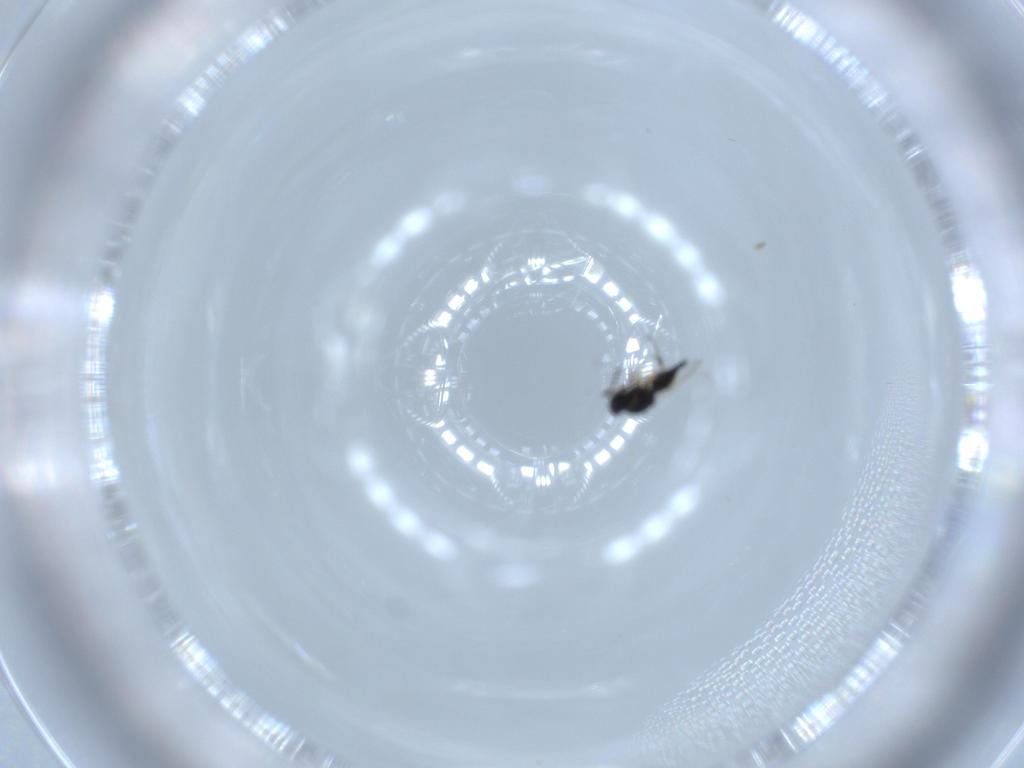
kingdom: Animalia
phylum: Arthropoda
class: Insecta
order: Hymenoptera
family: Platygastridae
